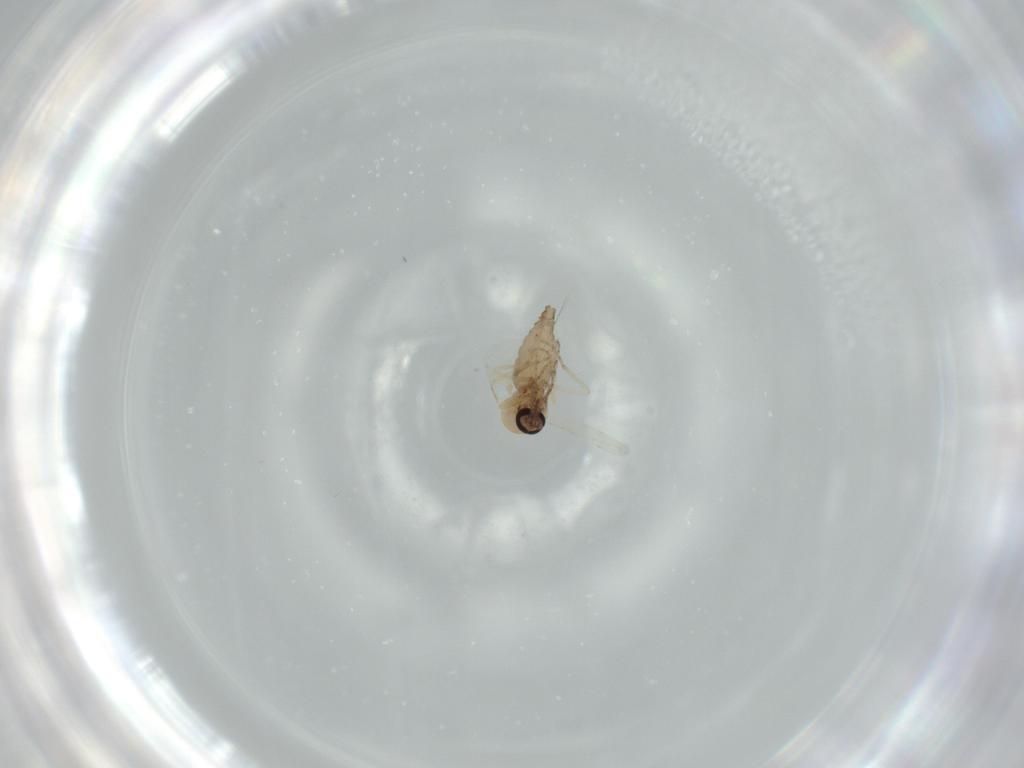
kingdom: Animalia
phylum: Arthropoda
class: Insecta
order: Diptera
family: Ceratopogonidae
